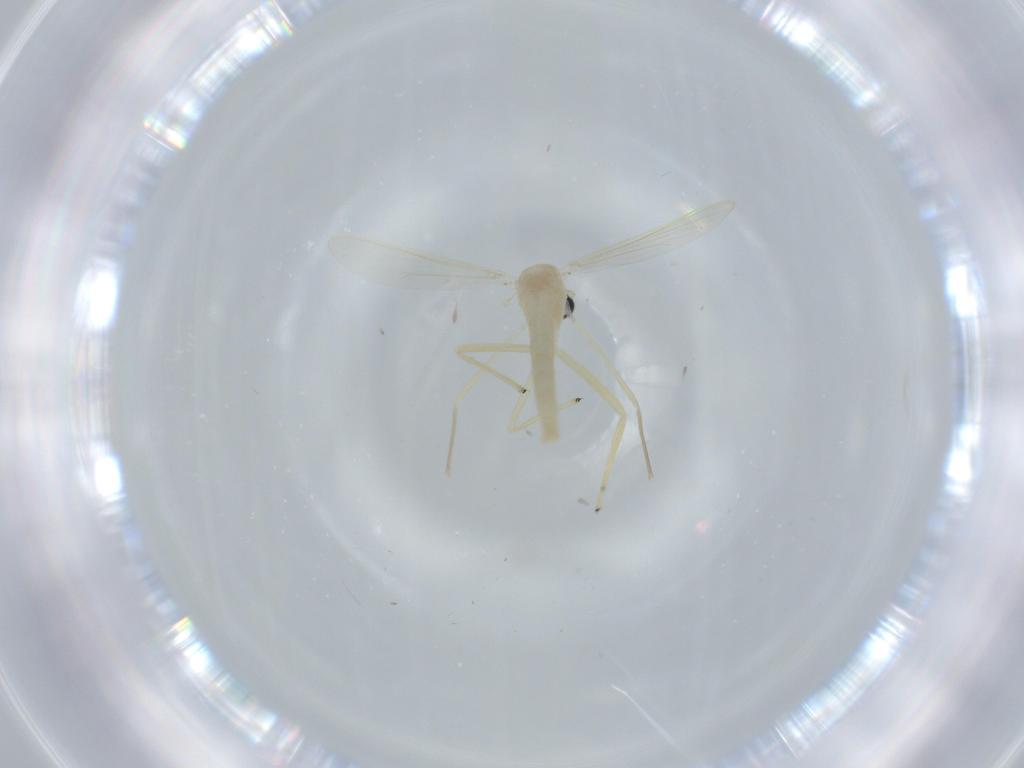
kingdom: Animalia
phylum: Arthropoda
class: Insecta
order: Diptera
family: Chironomidae
